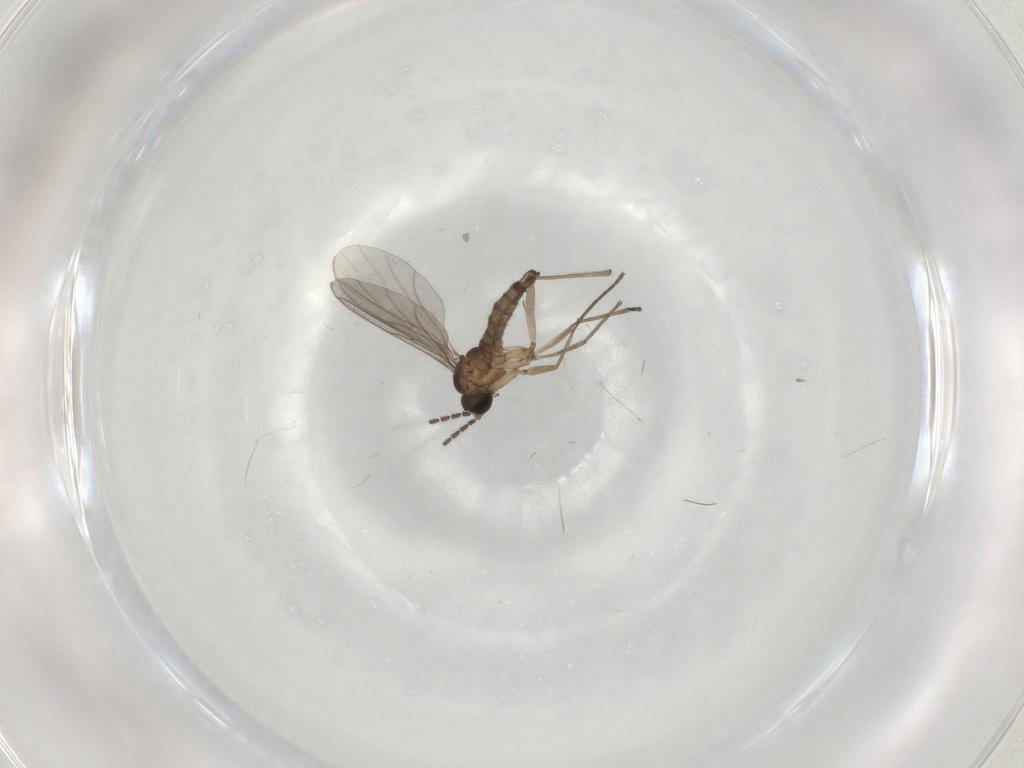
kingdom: Animalia
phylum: Arthropoda
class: Insecta
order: Diptera
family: Sciaridae
